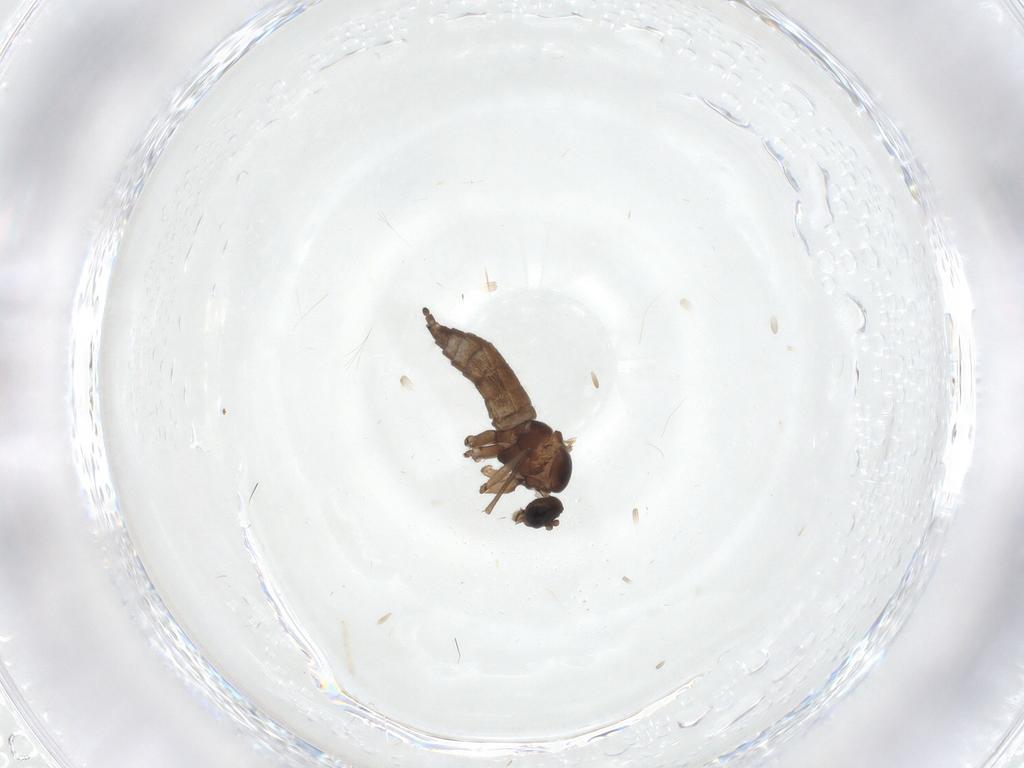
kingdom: Animalia
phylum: Arthropoda
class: Insecta
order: Diptera
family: Sciaridae
